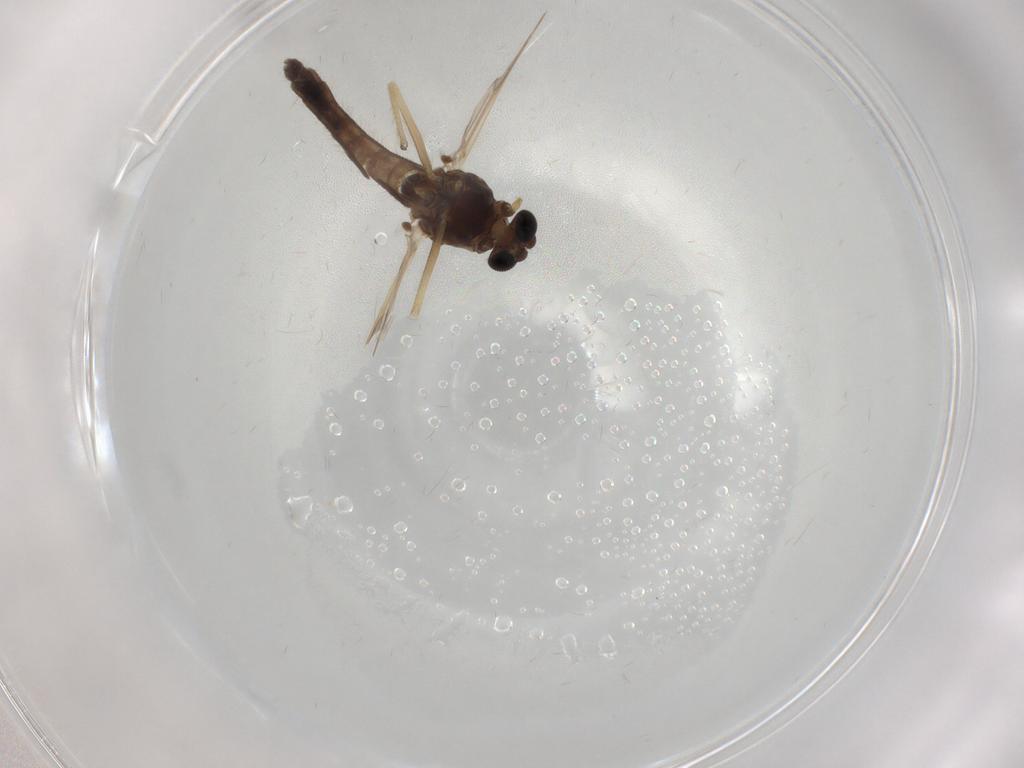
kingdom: Animalia
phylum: Arthropoda
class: Insecta
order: Diptera
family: Chironomidae
